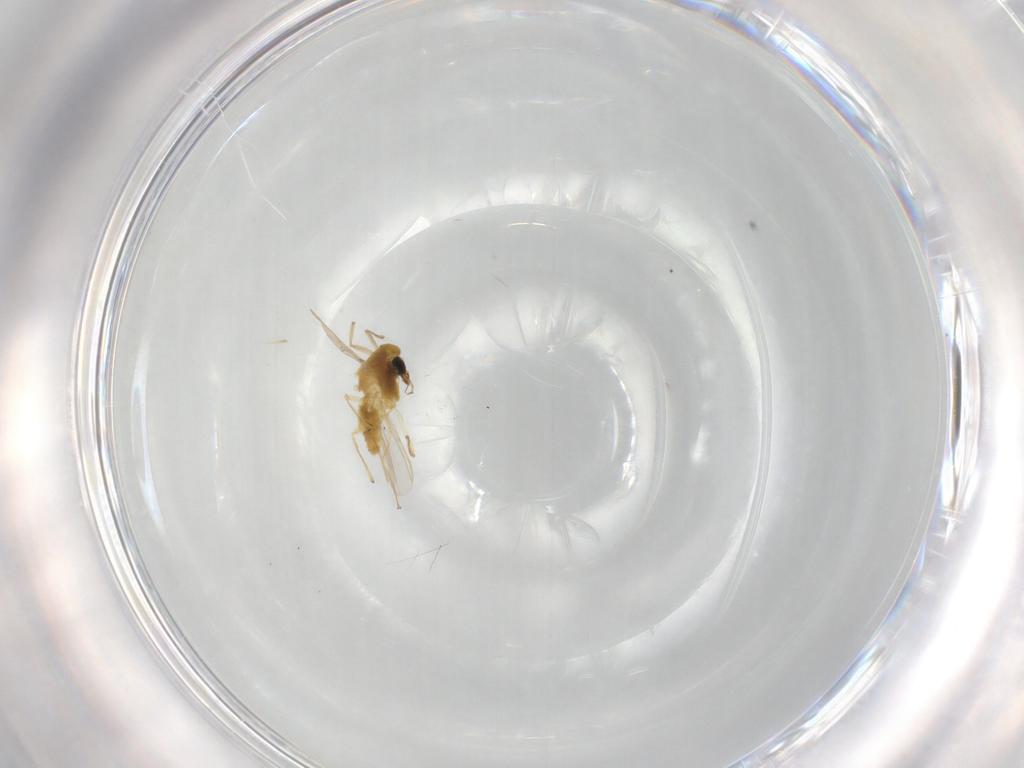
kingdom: Animalia
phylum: Arthropoda
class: Insecta
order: Diptera
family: Chironomidae
